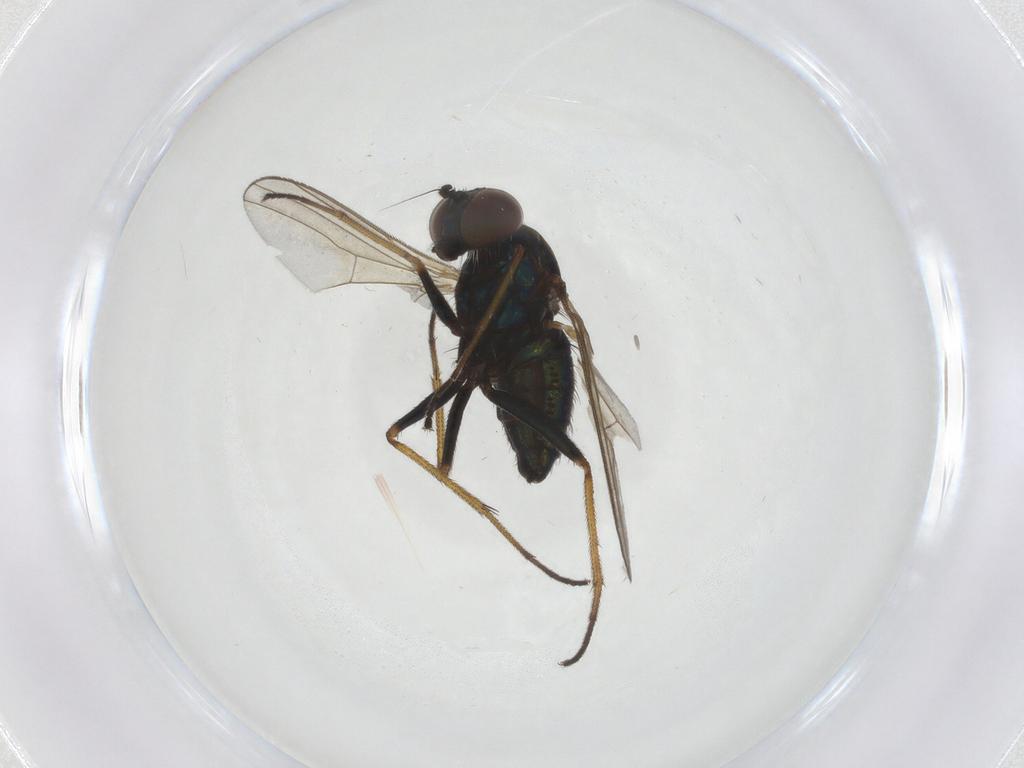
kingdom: Animalia
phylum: Arthropoda
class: Insecta
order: Diptera
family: Dolichopodidae
